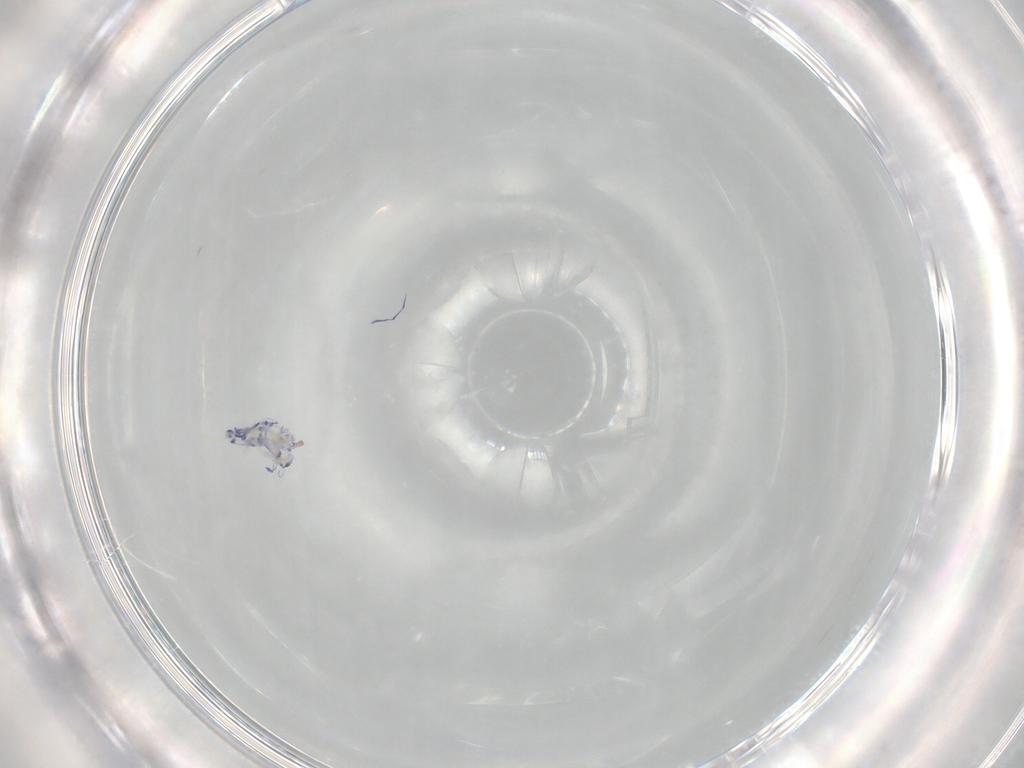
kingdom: Animalia
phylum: Arthropoda
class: Collembola
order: Entomobryomorpha
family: Entomobryidae
